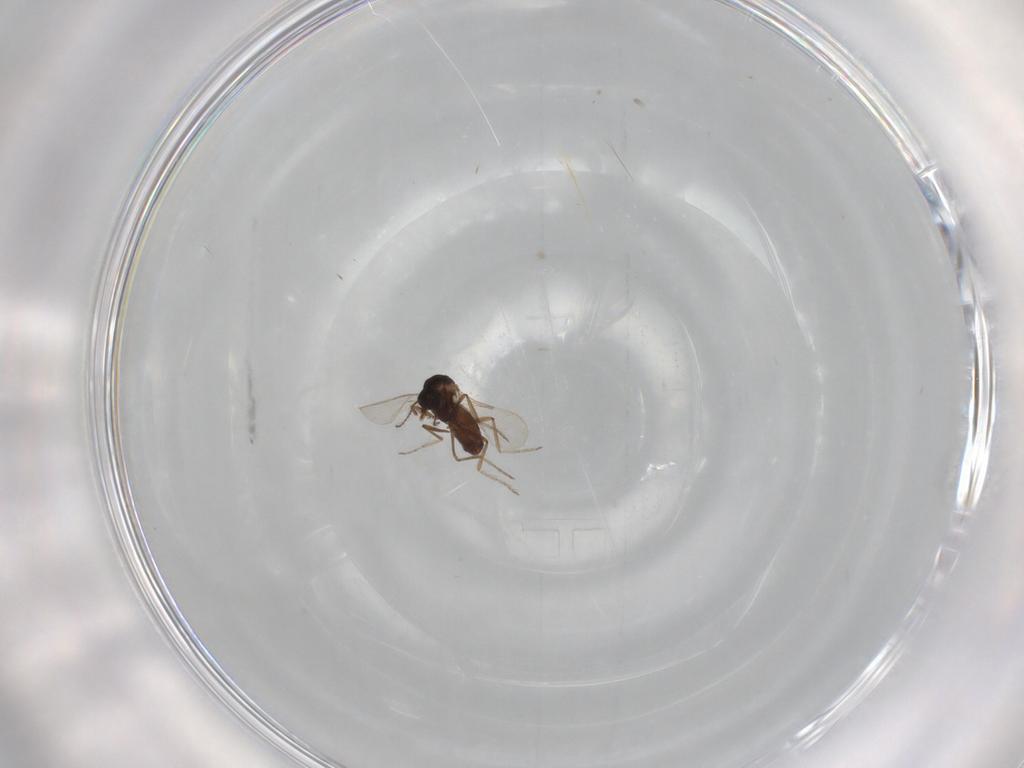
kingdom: Animalia
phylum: Arthropoda
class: Insecta
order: Diptera
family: Ceratopogonidae
